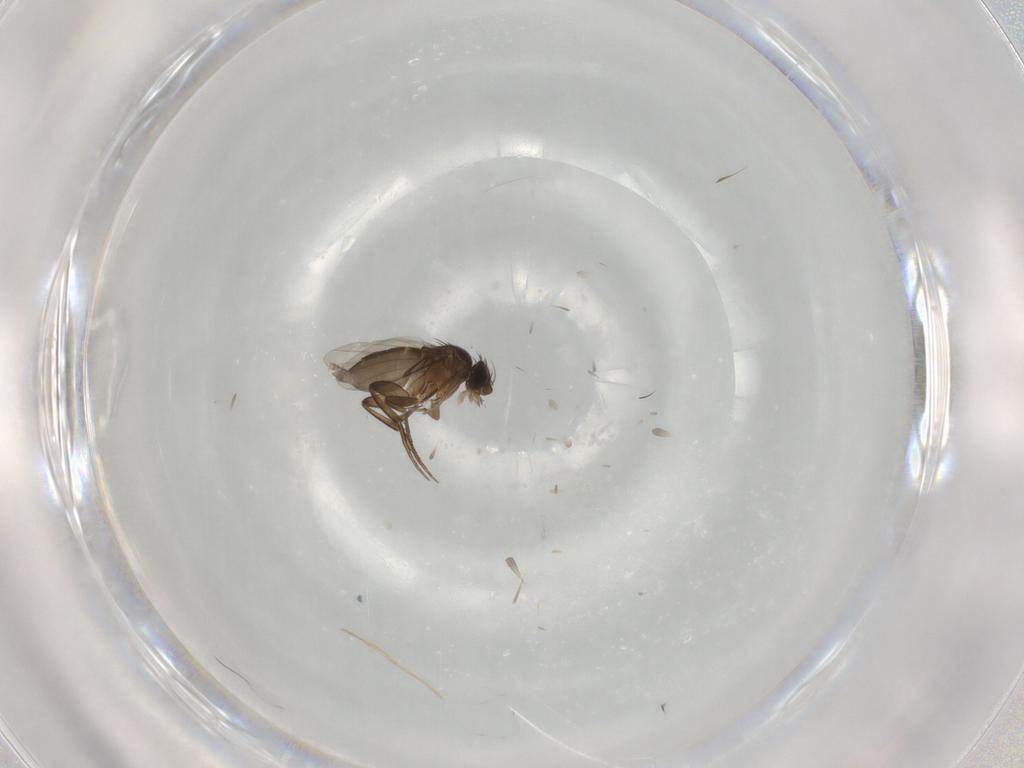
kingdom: Animalia
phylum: Arthropoda
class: Insecta
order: Diptera
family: Phoridae
